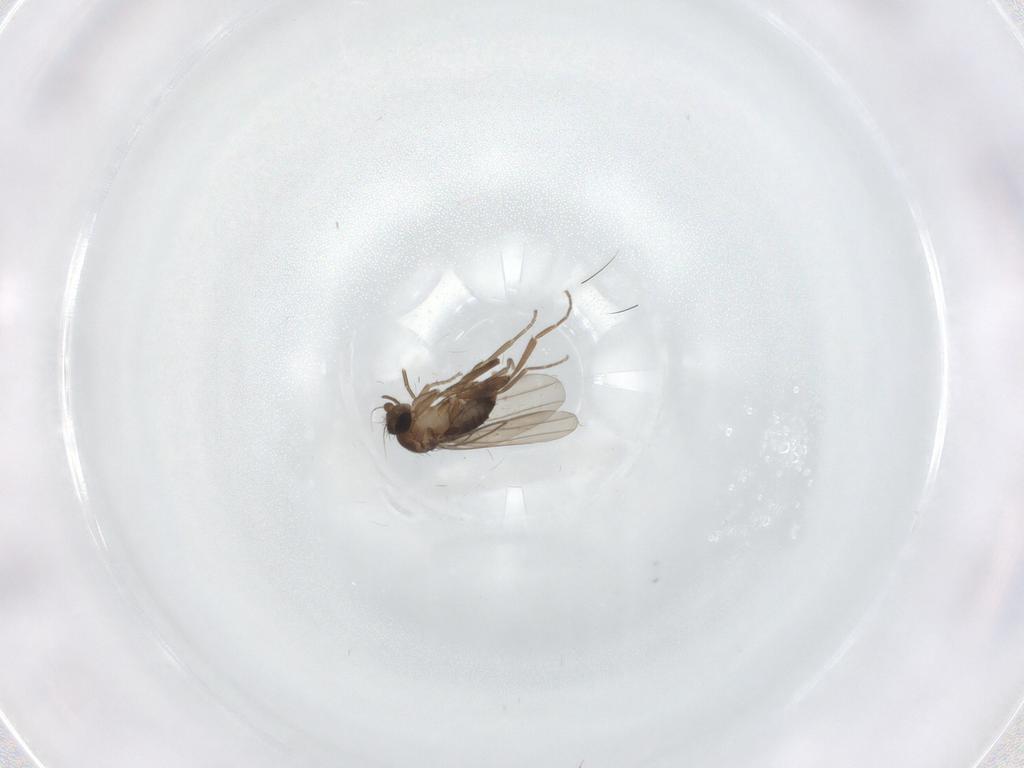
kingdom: Animalia
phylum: Arthropoda
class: Insecta
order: Diptera
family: Phoridae
